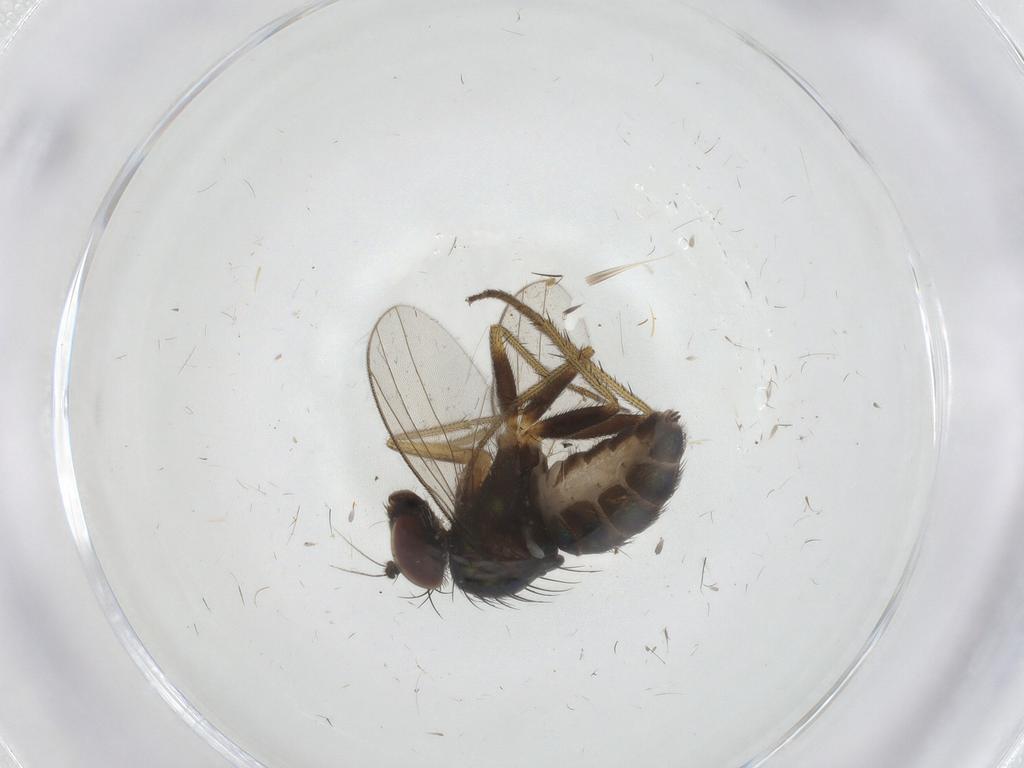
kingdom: Animalia
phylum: Arthropoda
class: Insecta
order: Diptera
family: Dolichopodidae
